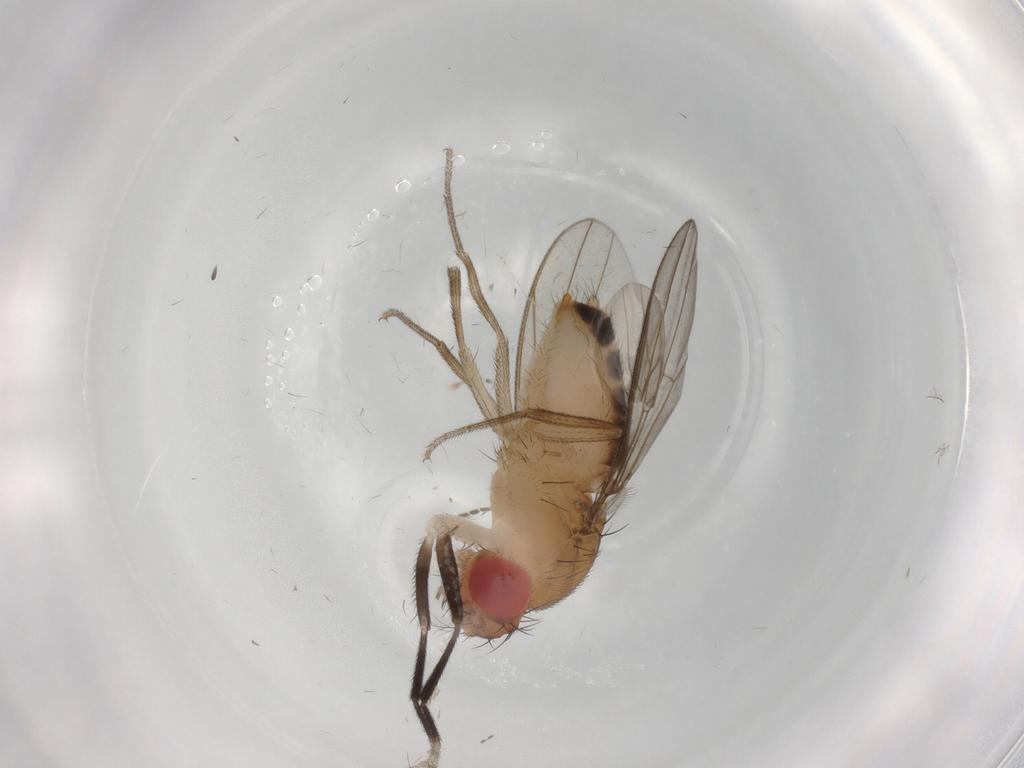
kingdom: Animalia
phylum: Arthropoda
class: Insecta
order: Diptera
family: Drosophilidae
